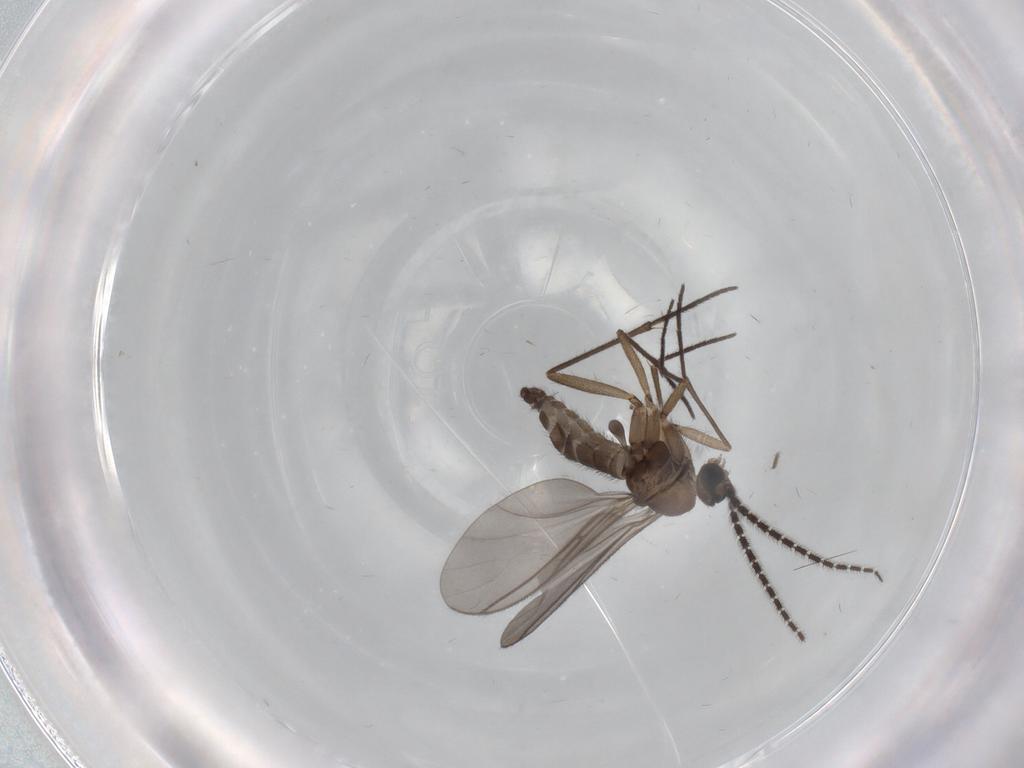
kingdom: Animalia
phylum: Arthropoda
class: Insecta
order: Diptera
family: Sciaridae
